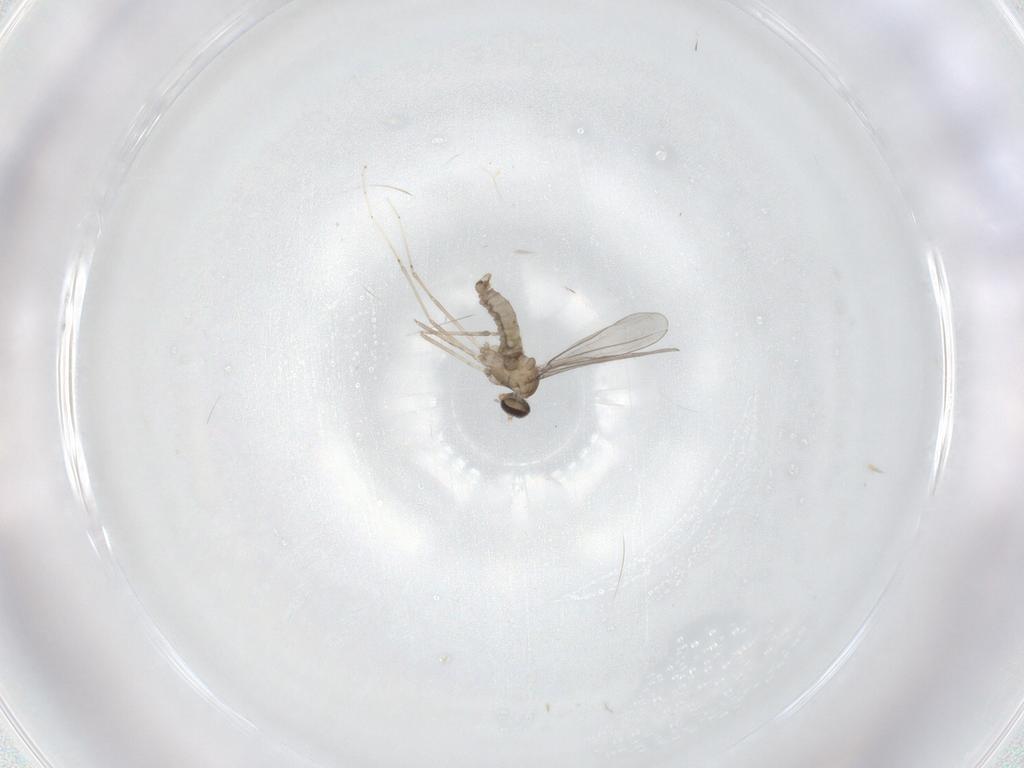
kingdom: Animalia
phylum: Arthropoda
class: Insecta
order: Diptera
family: Cecidomyiidae
